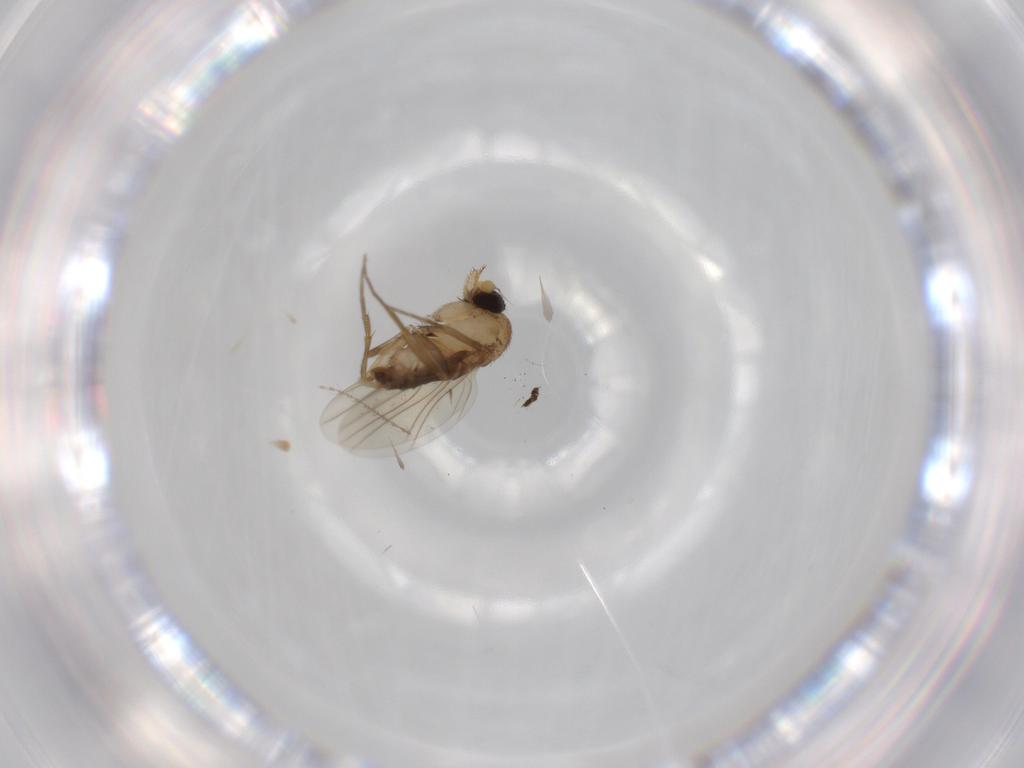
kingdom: Animalia
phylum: Arthropoda
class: Insecta
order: Diptera
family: Cecidomyiidae
